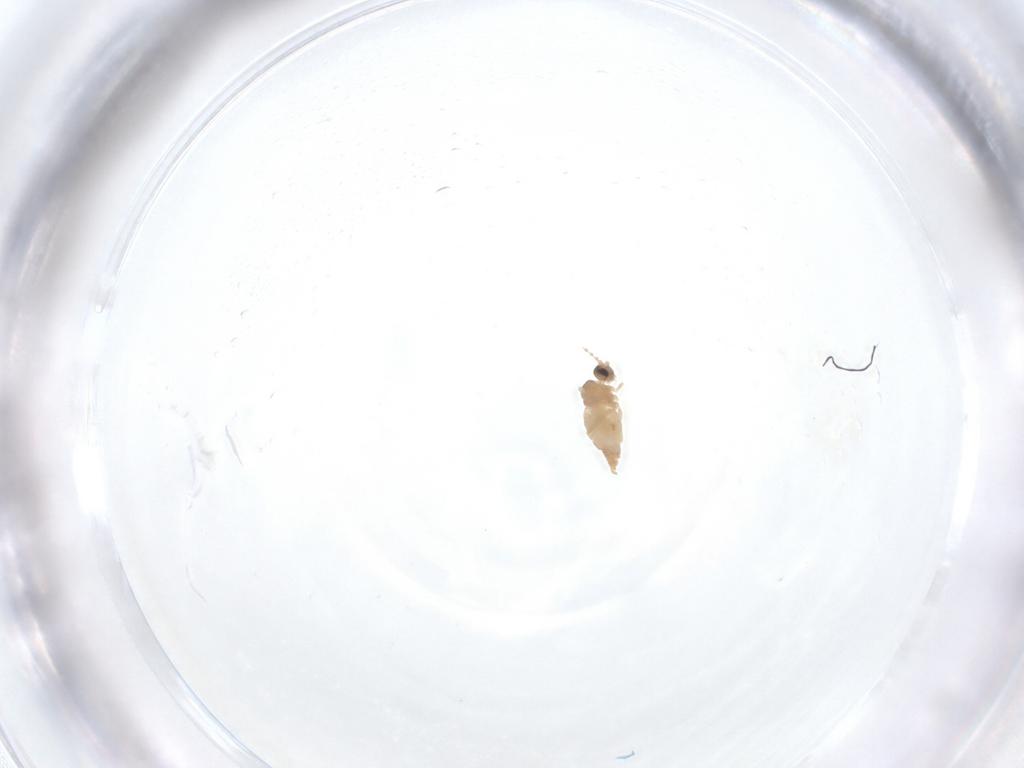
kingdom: Animalia
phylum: Arthropoda
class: Insecta
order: Diptera
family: Cecidomyiidae
